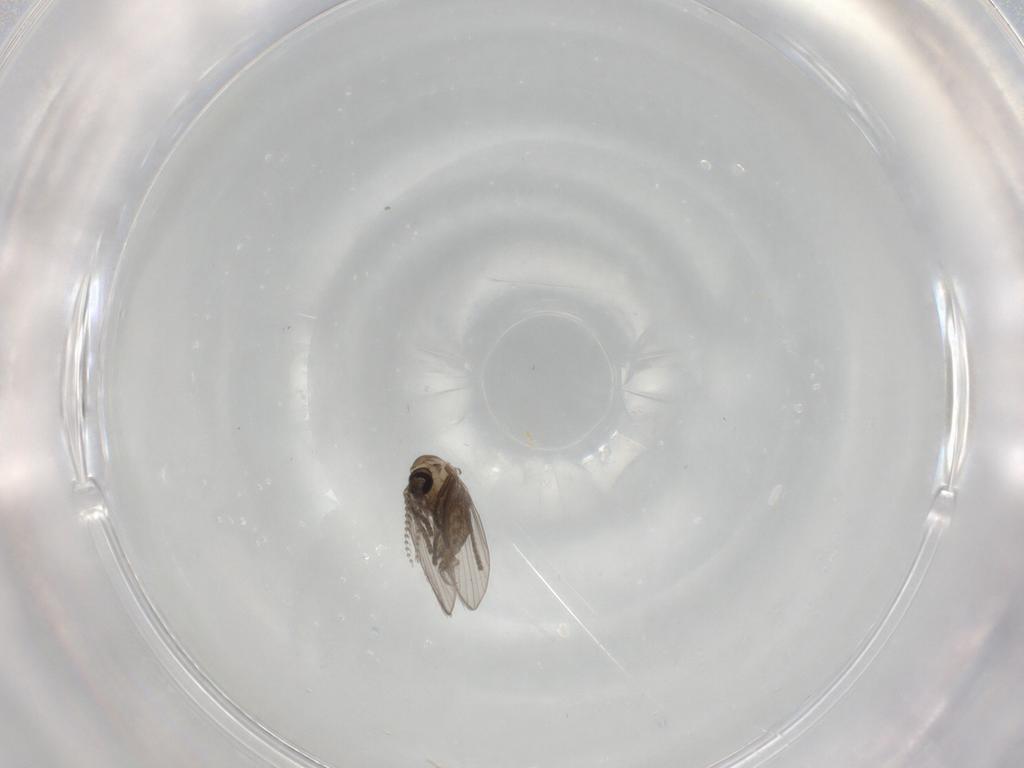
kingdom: Animalia
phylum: Arthropoda
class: Insecta
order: Diptera
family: Psychodidae
